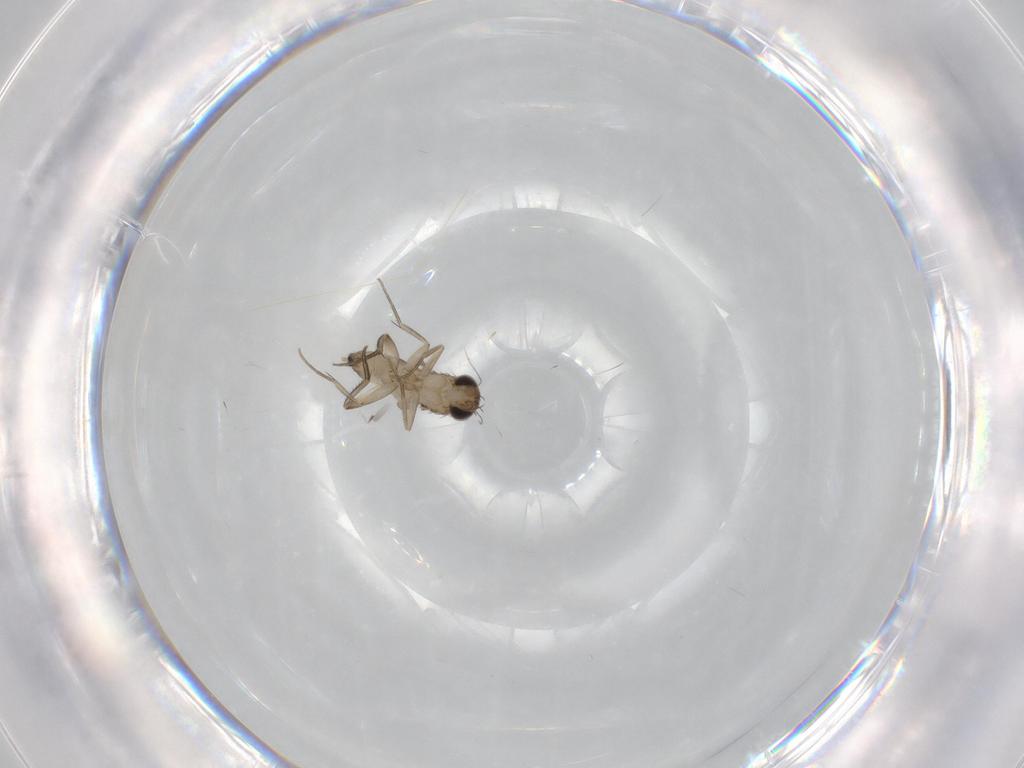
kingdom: Animalia
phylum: Arthropoda
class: Insecta
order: Diptera
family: Phoridae
